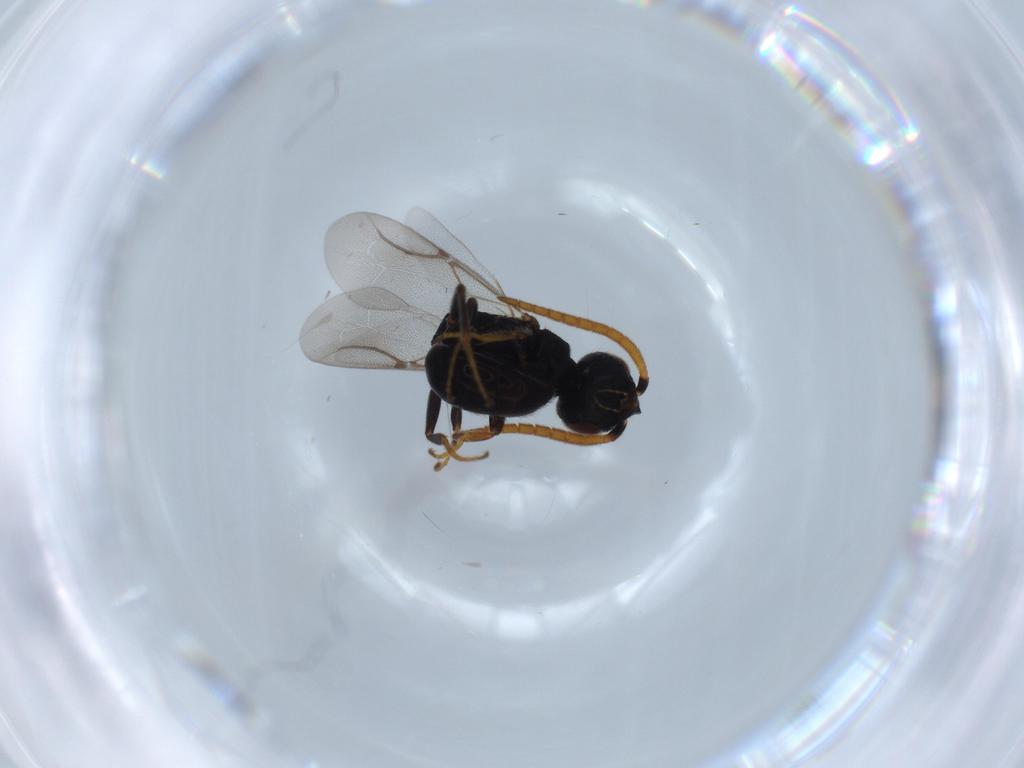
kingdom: Animalia
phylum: Arthropoda
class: Insecta
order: Hymenoptera
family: Bethylidae
